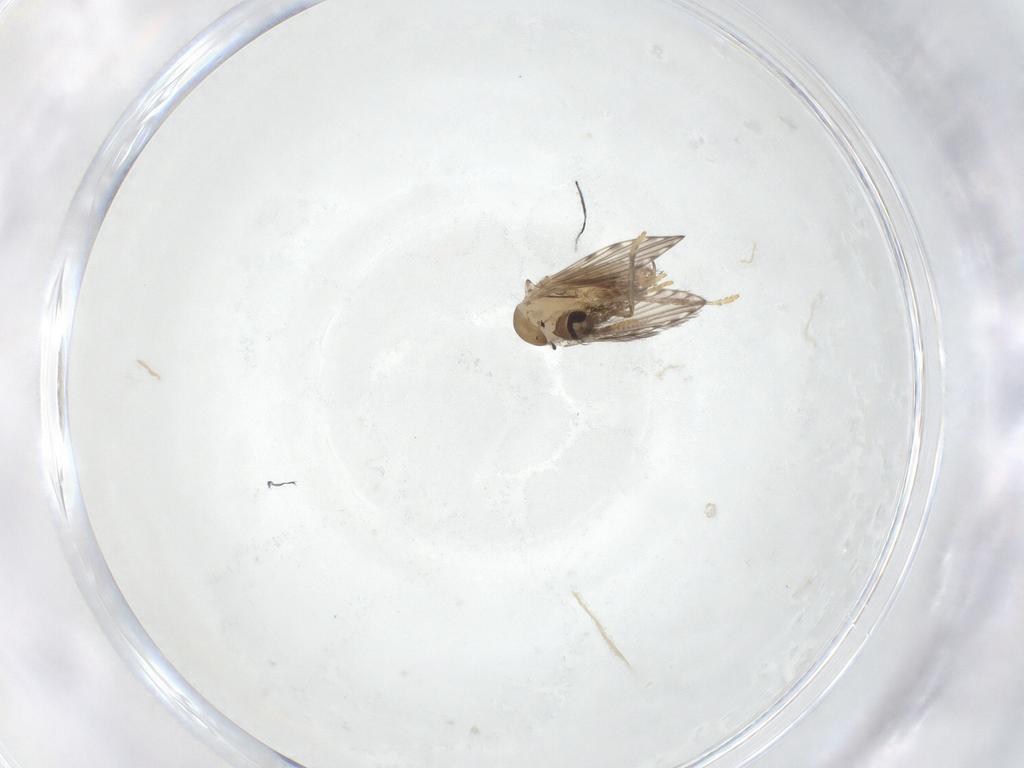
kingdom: Animalia
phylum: Arthropoda
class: Insecta
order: Diptera
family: Psychodidae
